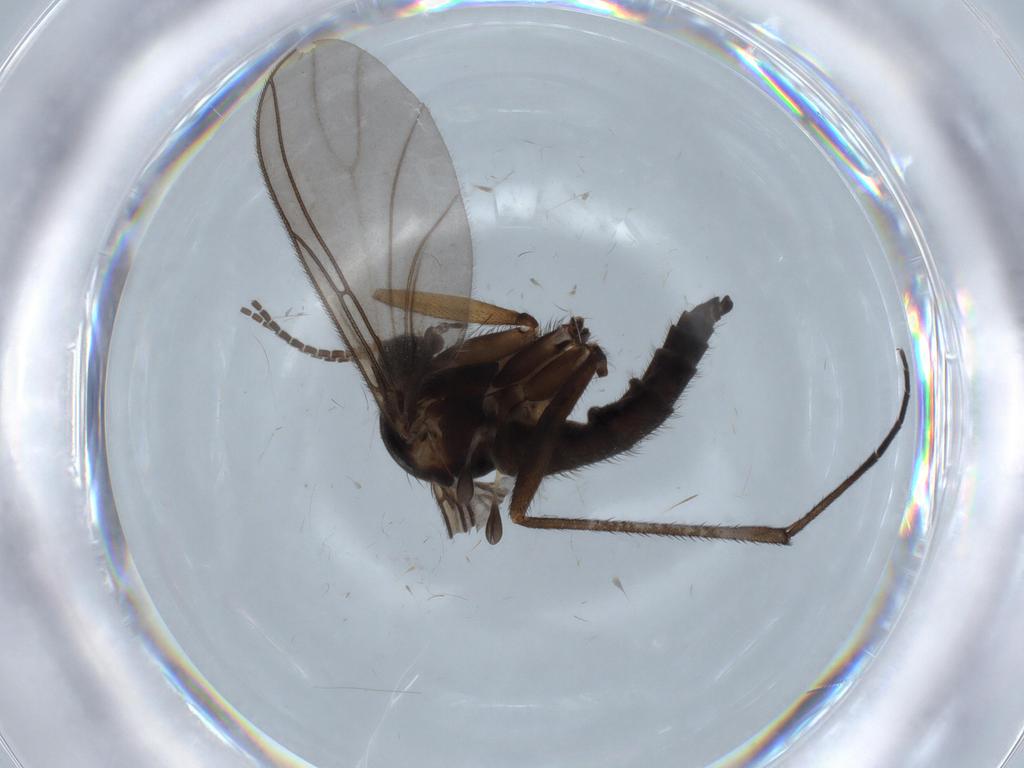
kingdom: Animalia
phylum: Arthropoda
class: Insecta
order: Diptera
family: Sciaridae
